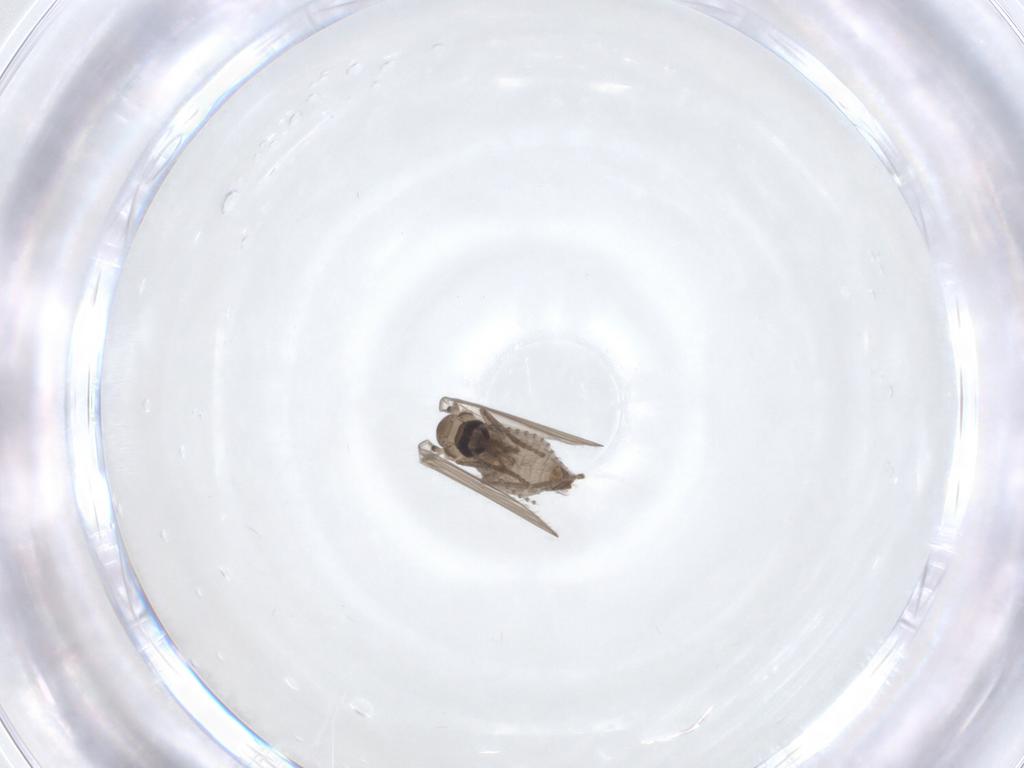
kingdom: Animalia
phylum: Arthropoda
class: Insecta
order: Diptera
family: Psychodidae
